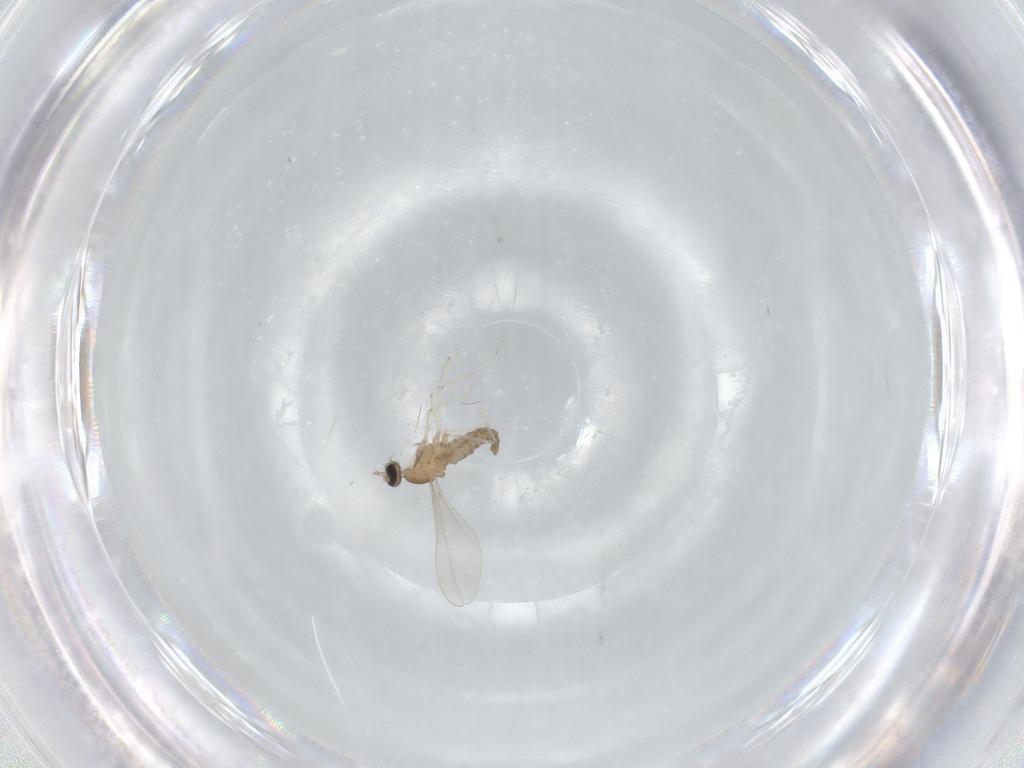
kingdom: Animalia
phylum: Arthropoda
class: Insecta
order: Diptera
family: Cecidomyiidae
